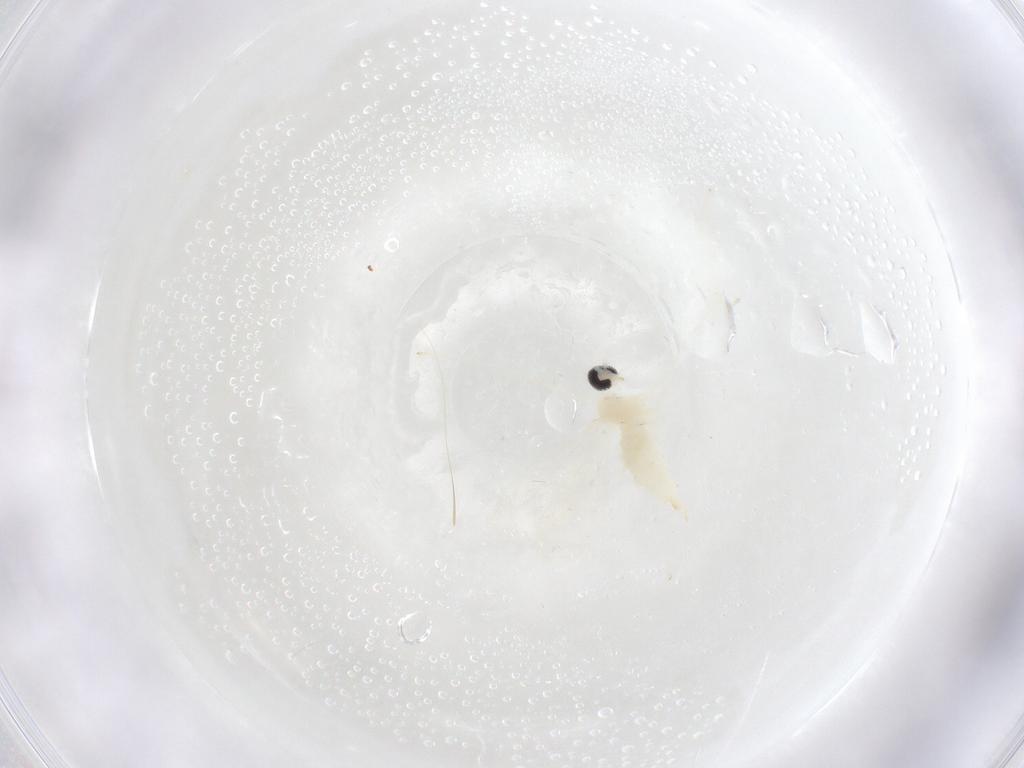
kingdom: Animalia
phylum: Arthropoda
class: Insecta
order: Diptera
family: Cecidomyiidae
